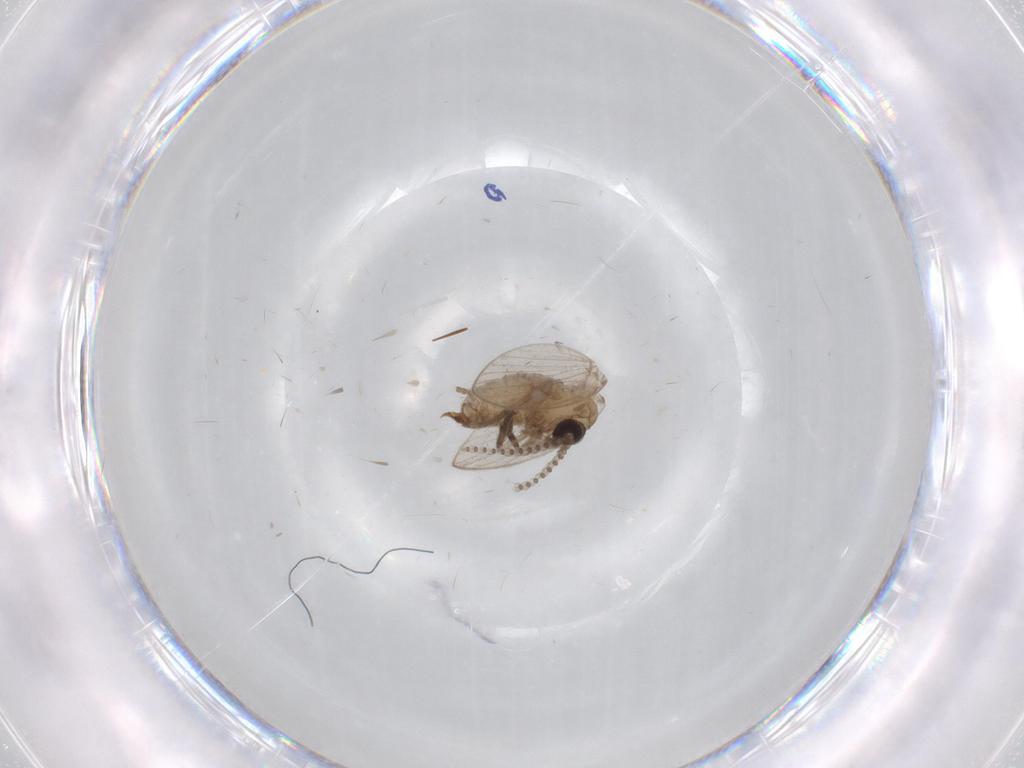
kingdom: Animalia
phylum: Arthropoda
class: Insecta
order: Diptera
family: Psychodidae
